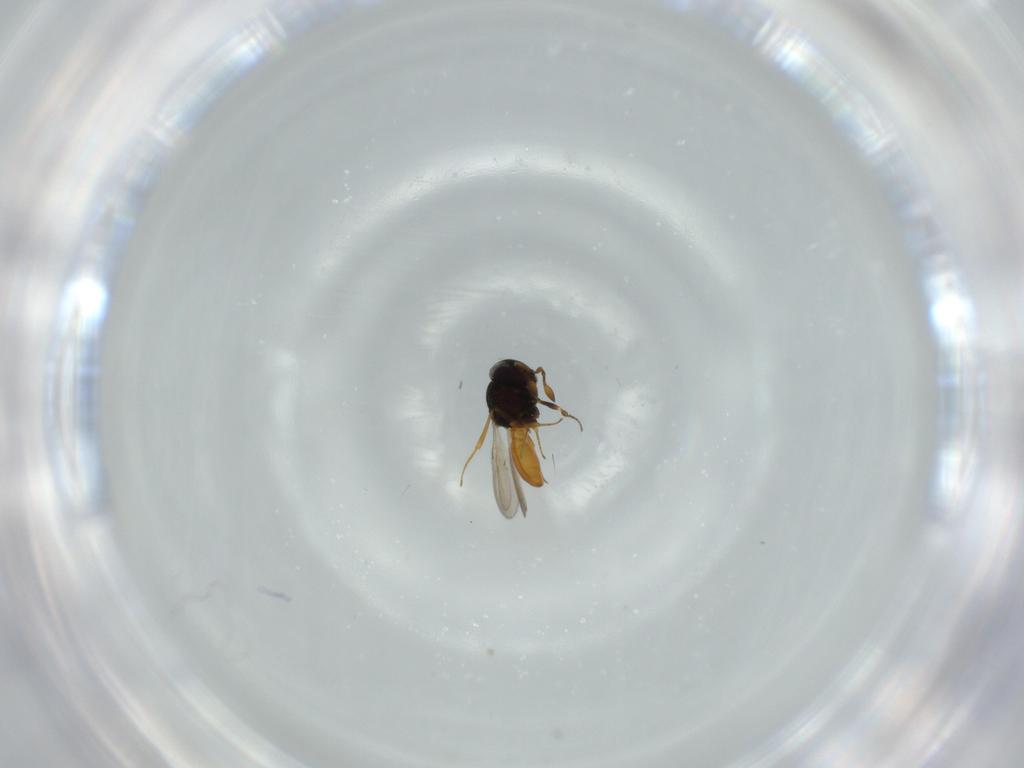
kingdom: Animalia
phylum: Arthropoda
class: Insecta
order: Hymenoptera
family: Scelionidae
